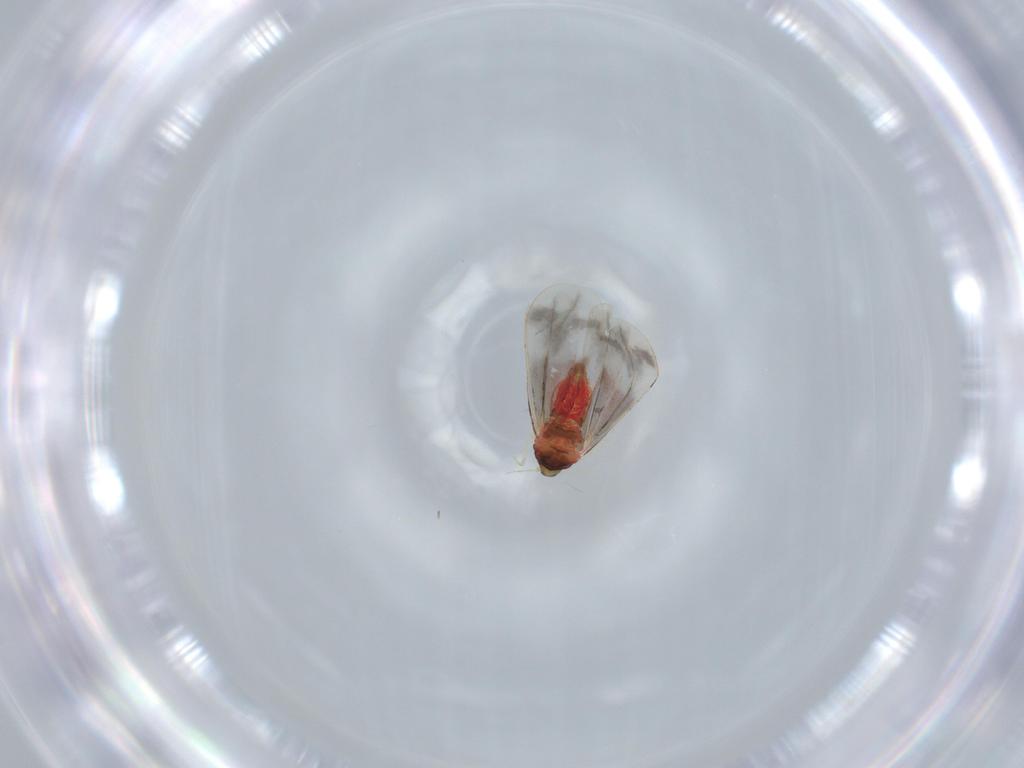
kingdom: Animalia
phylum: Arthropoda
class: Insecta
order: Hemiptera
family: Aleyrodidae
